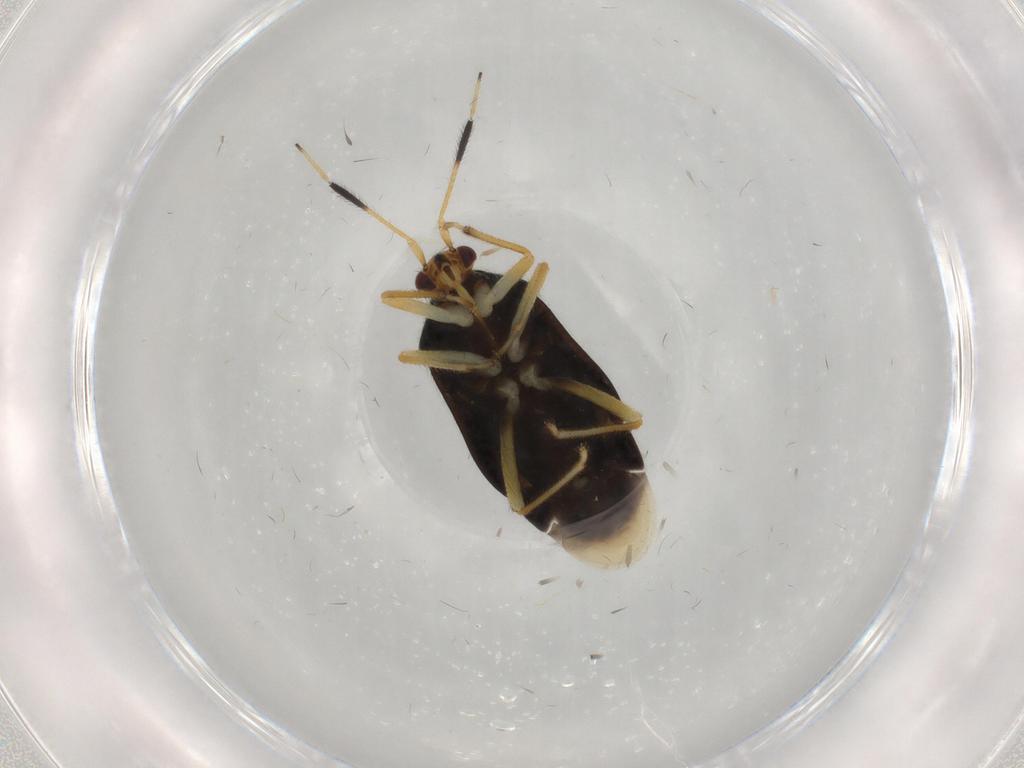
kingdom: Animalia
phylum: Arthropoda
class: Insecta
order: Hemiptera
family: Miridae
